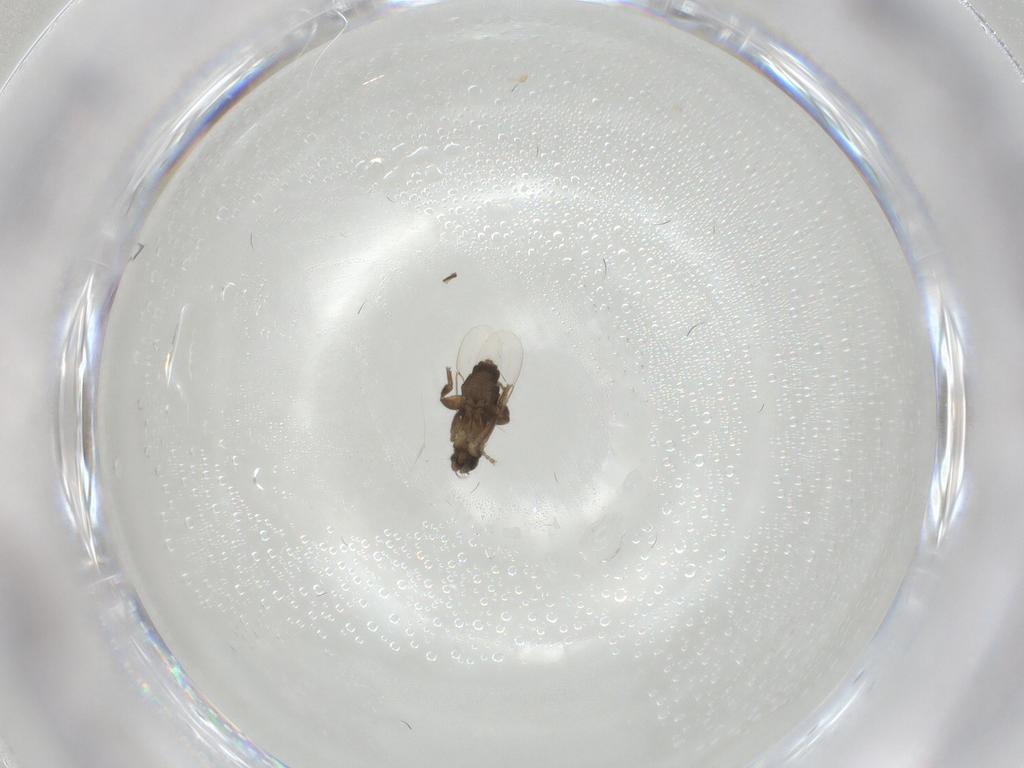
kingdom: Animalia
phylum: Arthropoda
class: Insecta
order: Diptera
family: Phoridae
